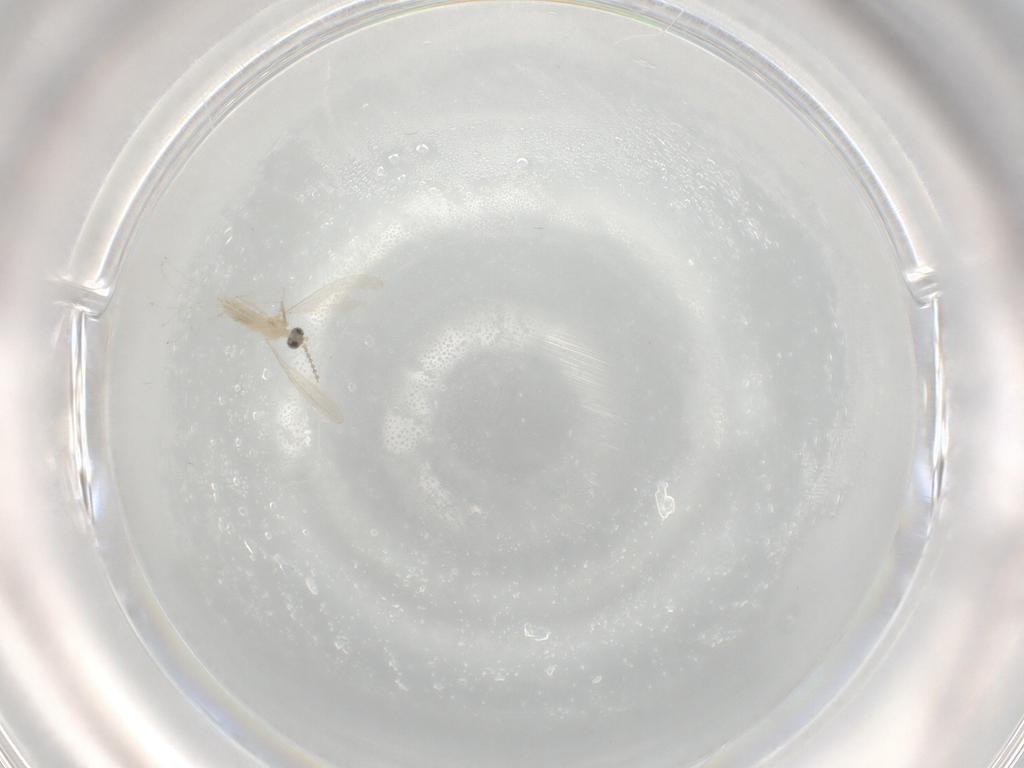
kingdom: Animalia
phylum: Arthropoda
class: Insecta
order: Diptera
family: Cecidomyiidae
